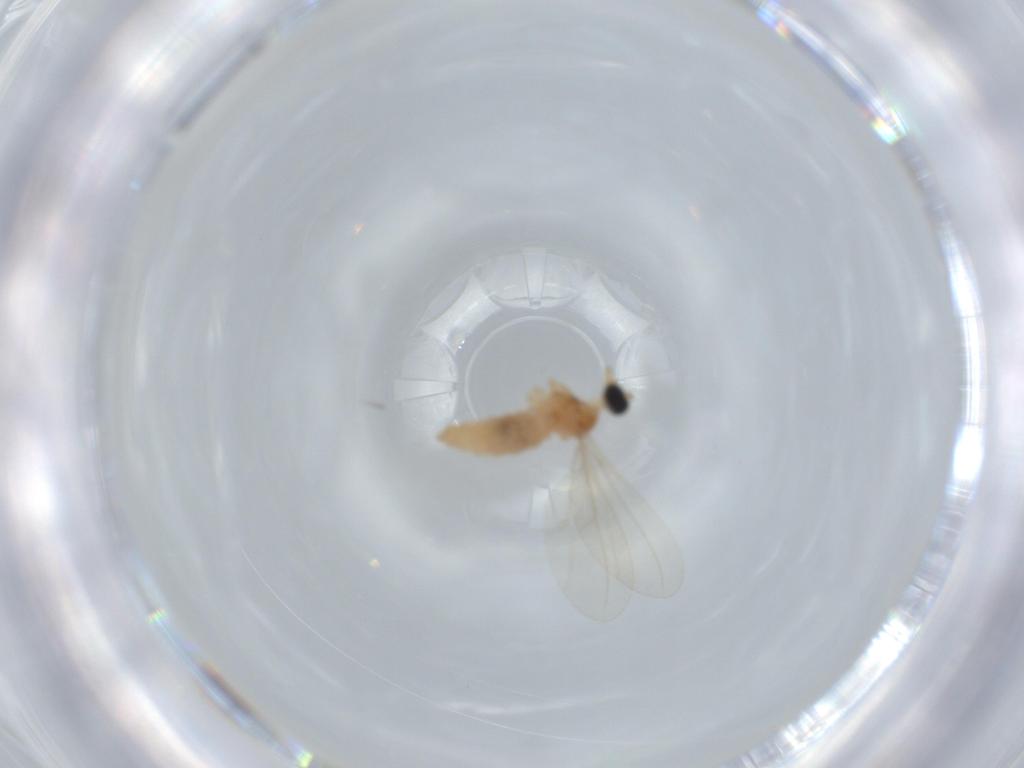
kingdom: Animalia
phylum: Arthropoda
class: Insecta
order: Diptera
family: Cecidomyiidae
